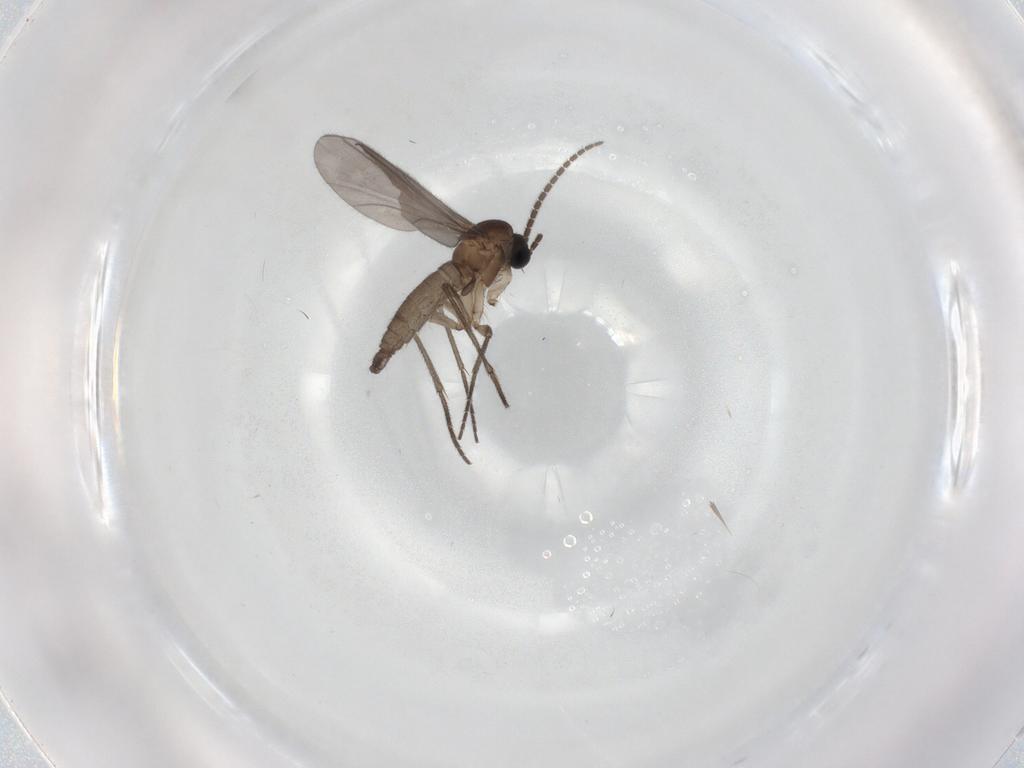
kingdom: Animalia
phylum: Arthropoda
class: Insecta
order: Diptera
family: Sciaridae
